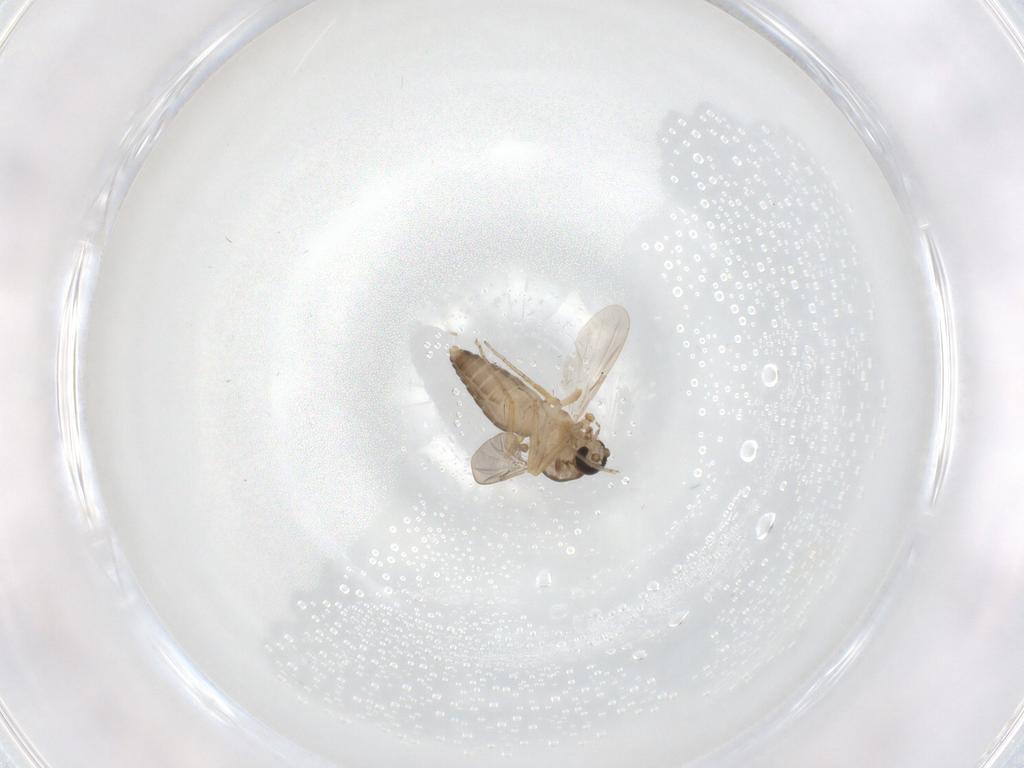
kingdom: Animalia
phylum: Arthropoda
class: Insecta
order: Diptera
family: Ceratopogonidae
